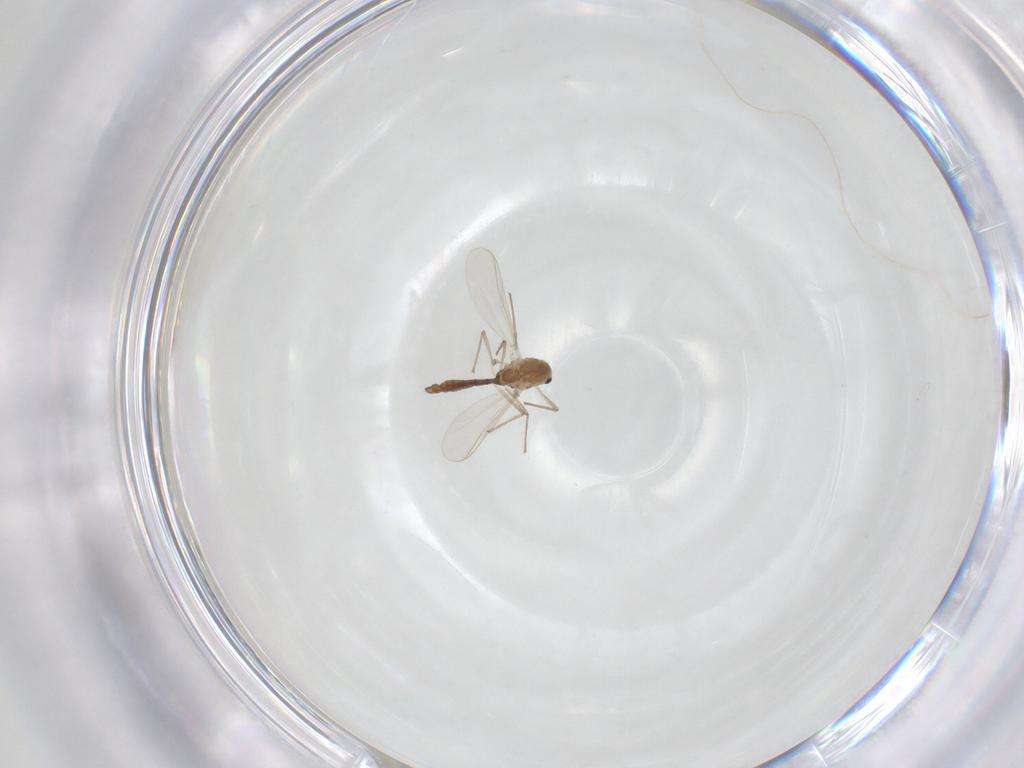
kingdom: Animalia
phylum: Arthropoda
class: Insecta
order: Diptera
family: Chironomidae
